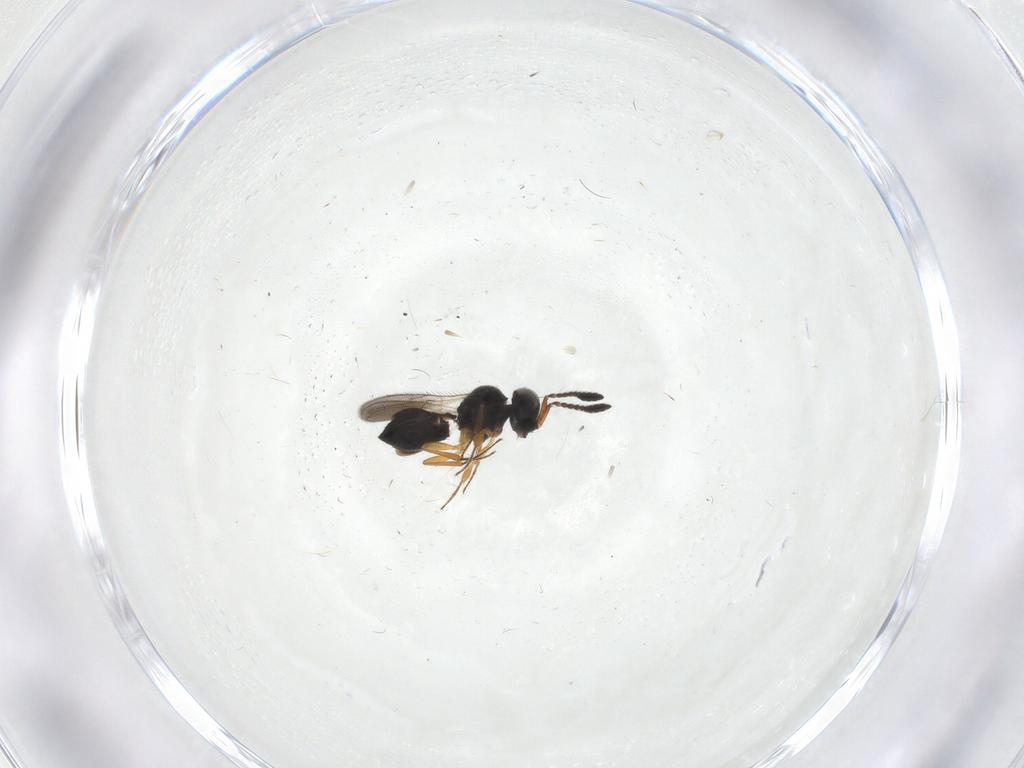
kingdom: Animalia
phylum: Arthropoda
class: Insecta
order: Hymenoptera
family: Scelionidae
